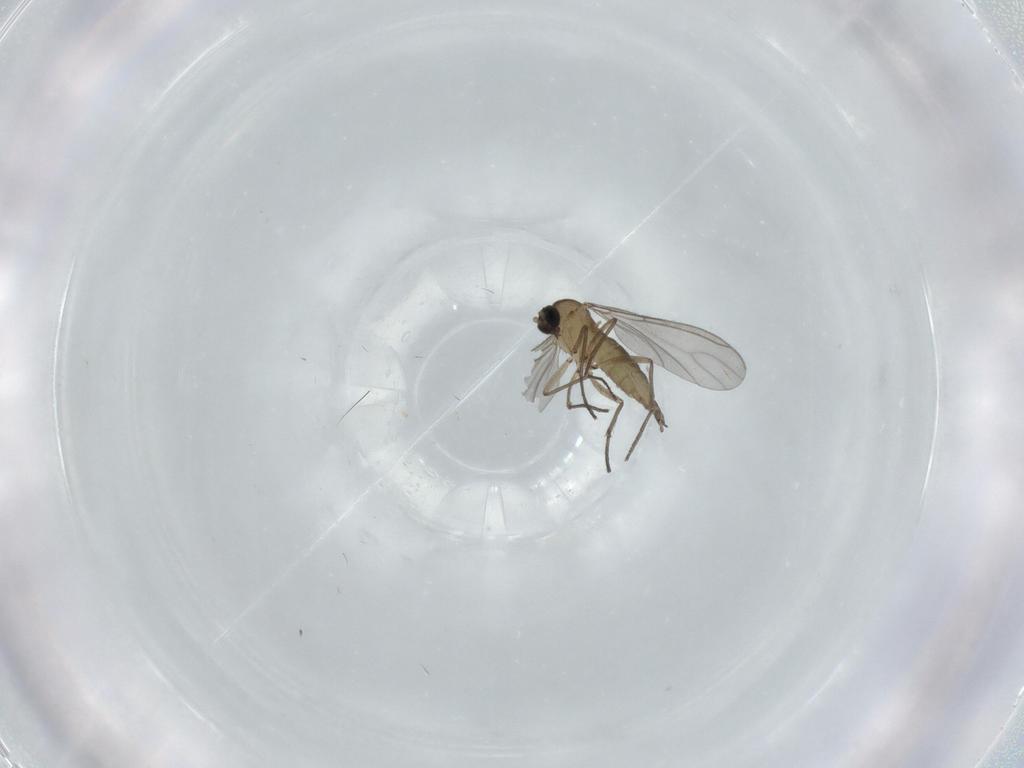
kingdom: Animalia
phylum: Arthropoda
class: Insecta
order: Diptera
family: Sciaridae
